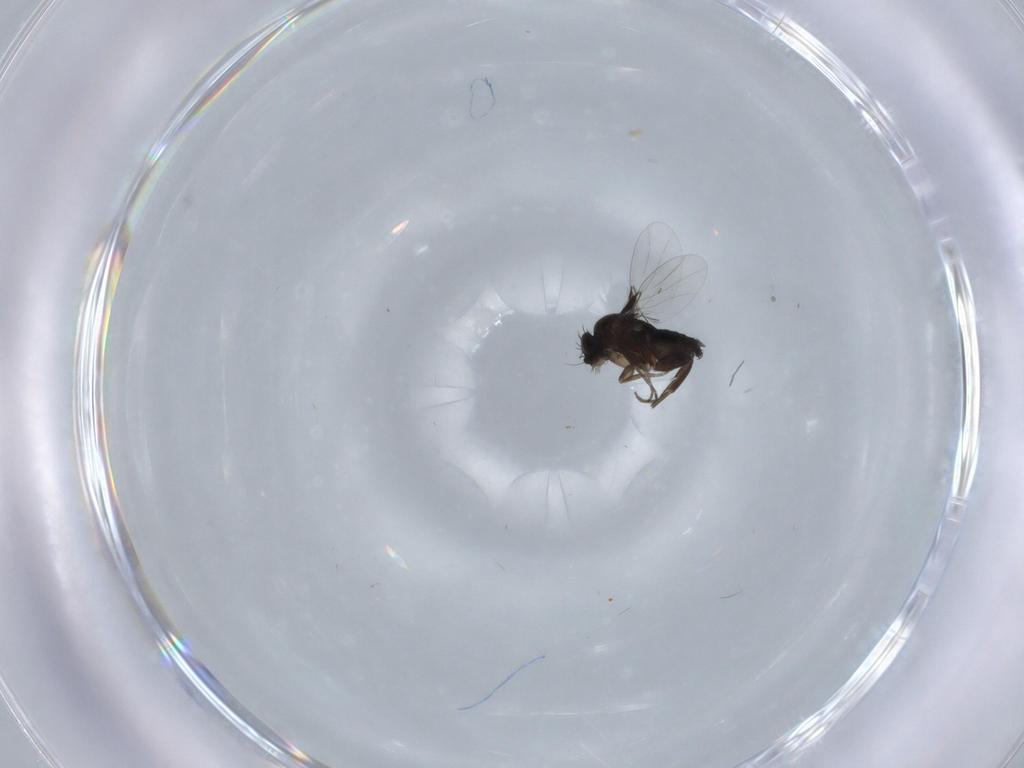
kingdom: Animalia
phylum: Arthropoda
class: Insecta
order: Diptera
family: Phoridae
